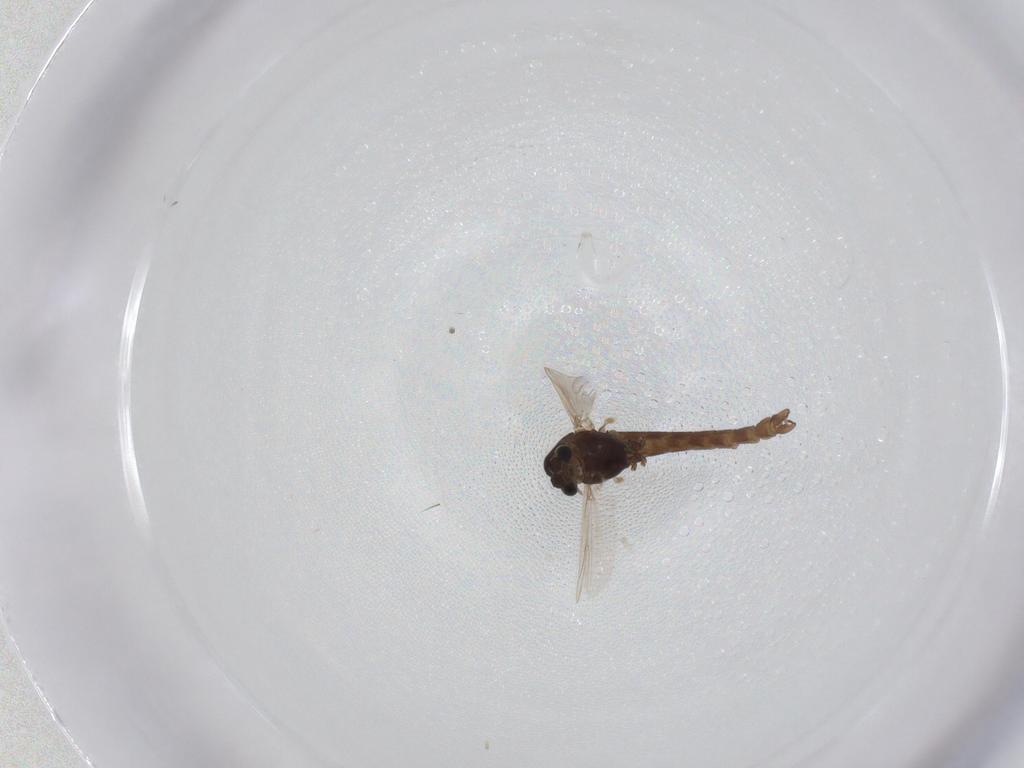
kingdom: Animalia
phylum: Arthropoda
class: Insecta
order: Diptera
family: Chironomidae
